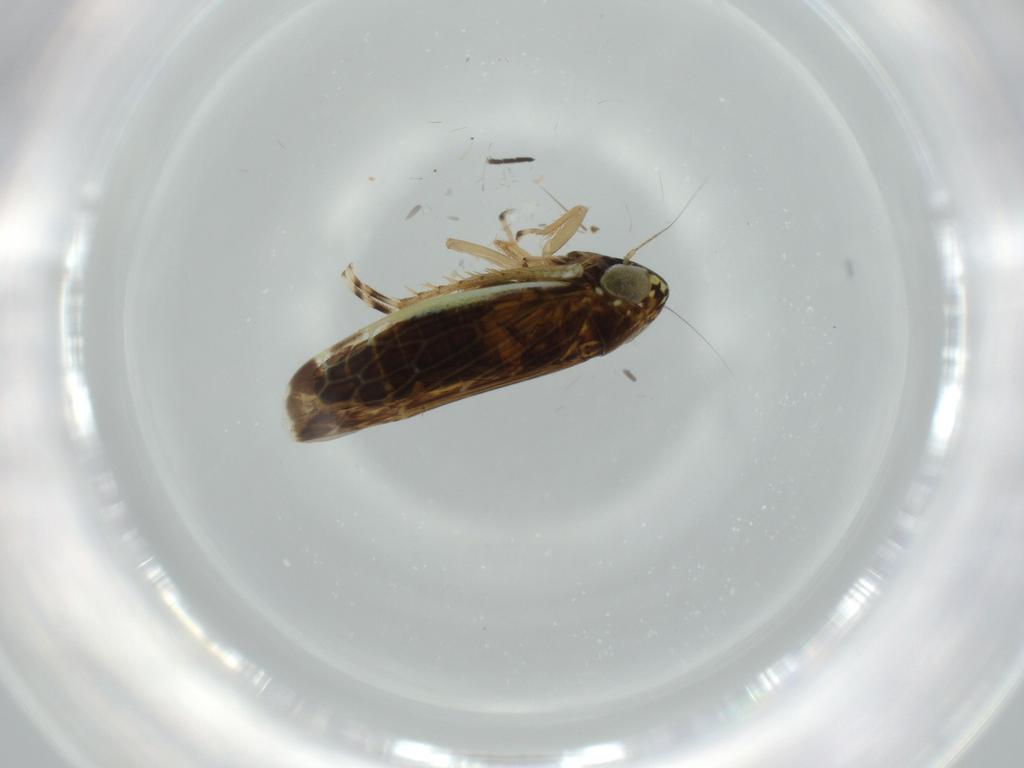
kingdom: Animalia
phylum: Arthropoda
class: Insecta
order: Hemiptera
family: Cicadellidae
